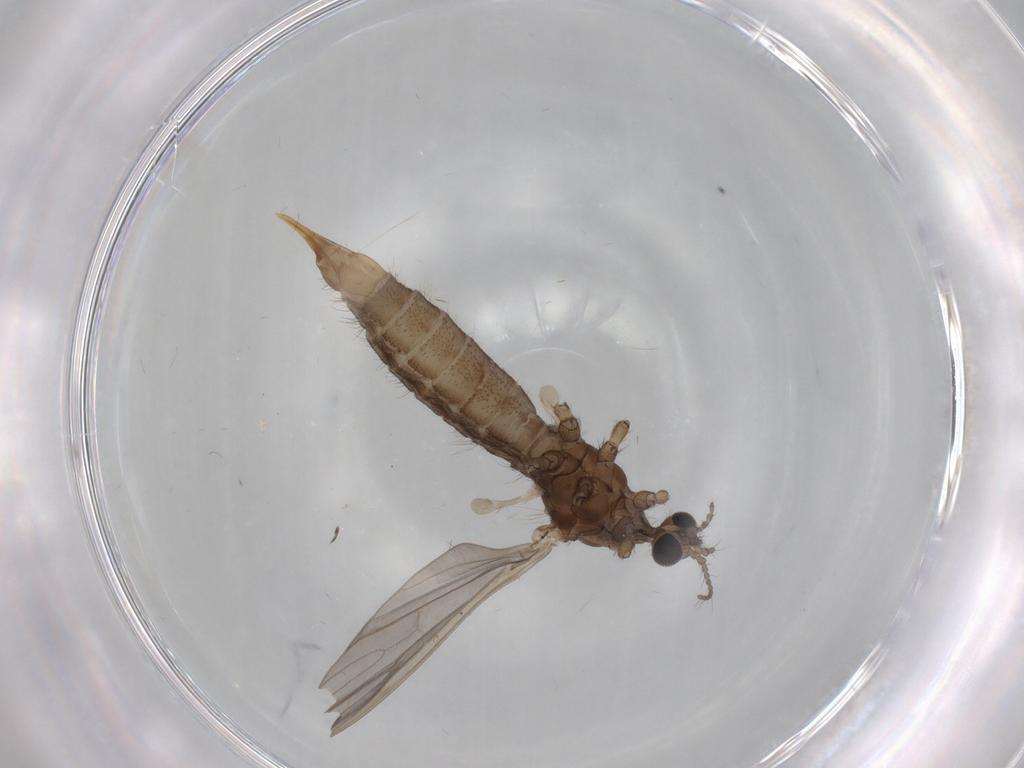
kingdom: Animalia
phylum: Arthropoda
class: Insecta
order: Diptera
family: Limoniidae
